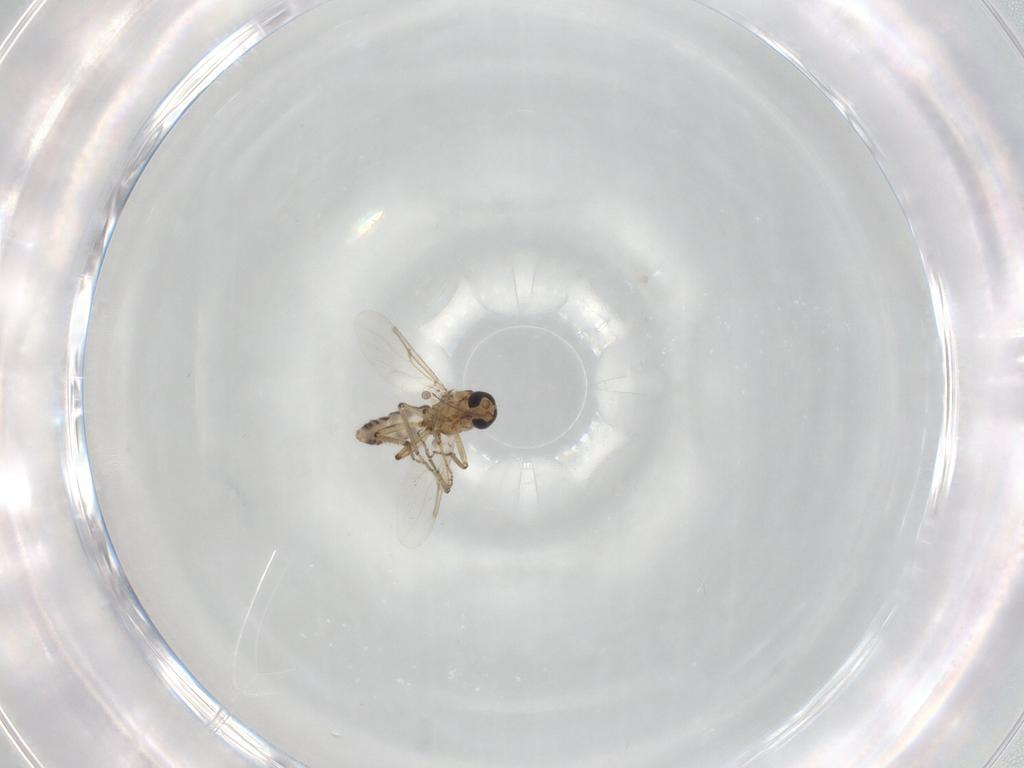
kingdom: Animalia
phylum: Arthropoda
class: Insecta
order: Diptera
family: Ceratopogonidae
